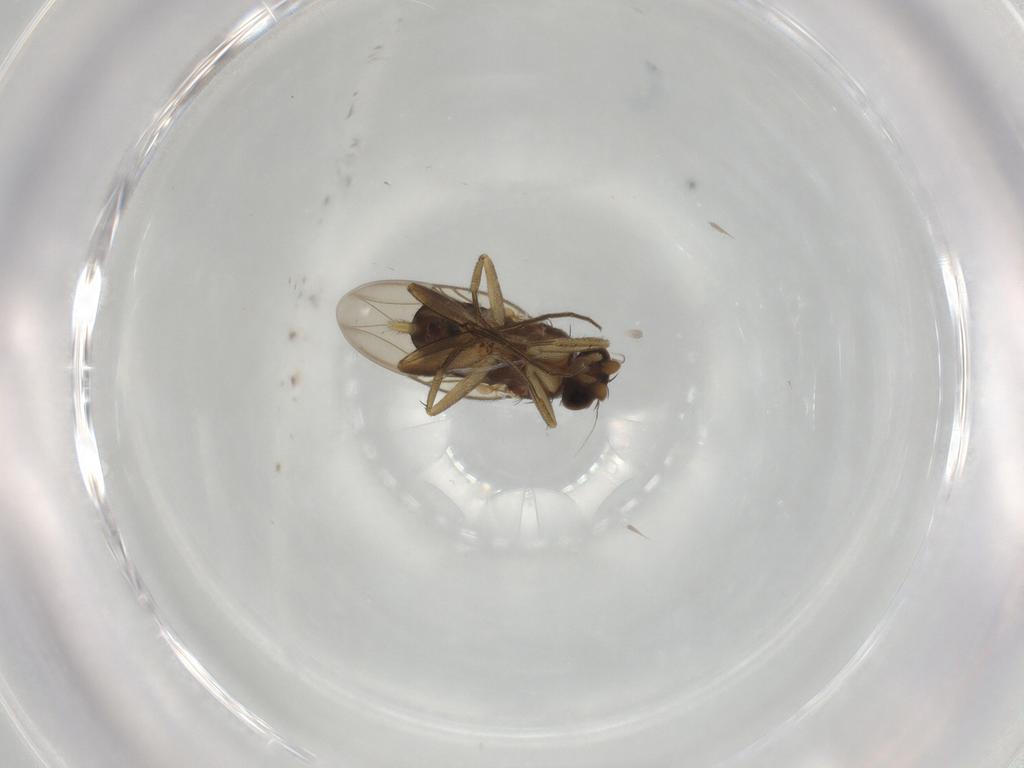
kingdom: Animalia
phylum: Arthropoda
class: Insecta
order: Diptera
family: Phoridae
